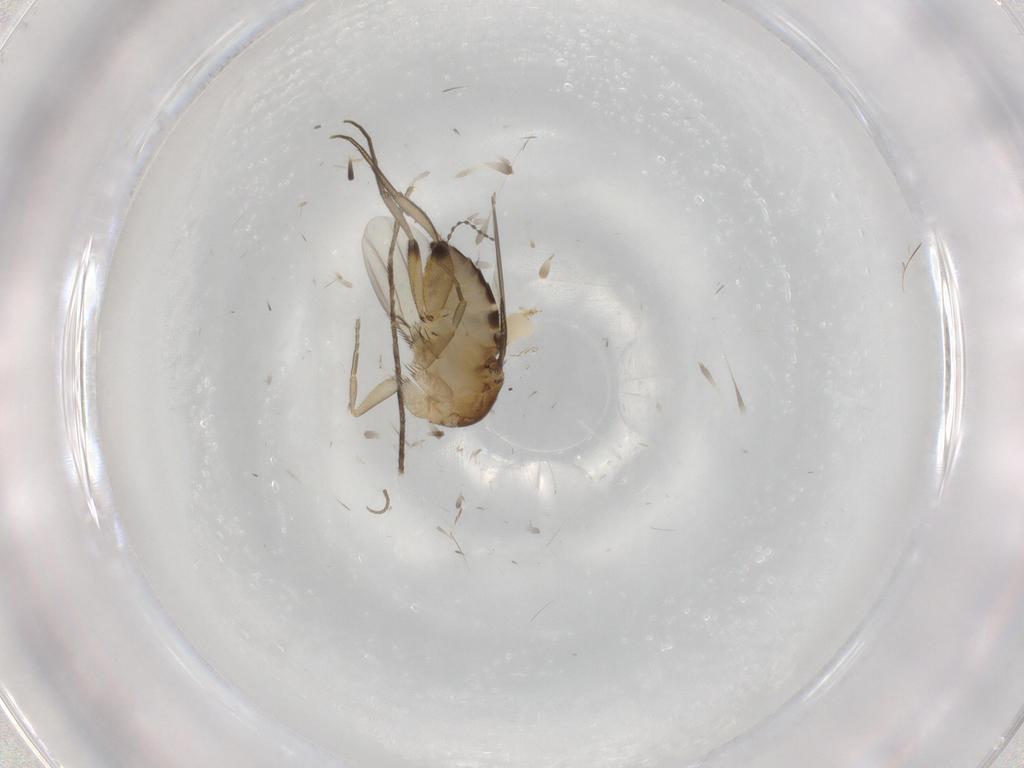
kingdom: Animalia
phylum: Arthropoda
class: Insecta
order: Diptera
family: Phoridae
